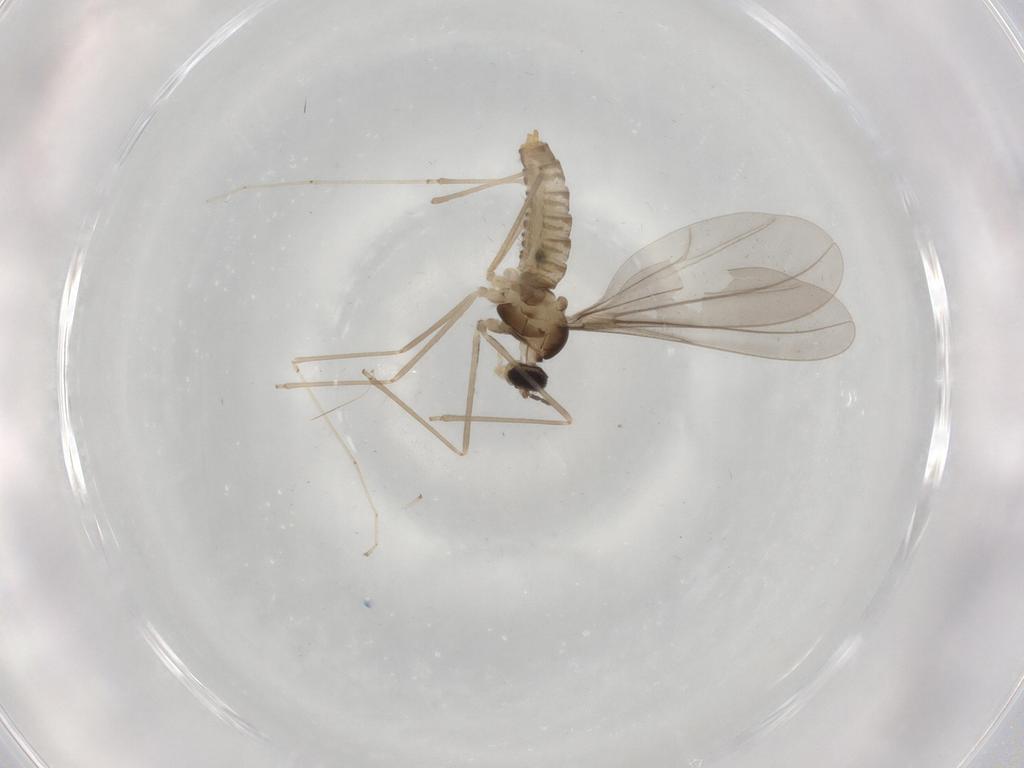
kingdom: Animalia
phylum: Arthropoda
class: Insecta
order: Diptera
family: Cecidomyiidae
